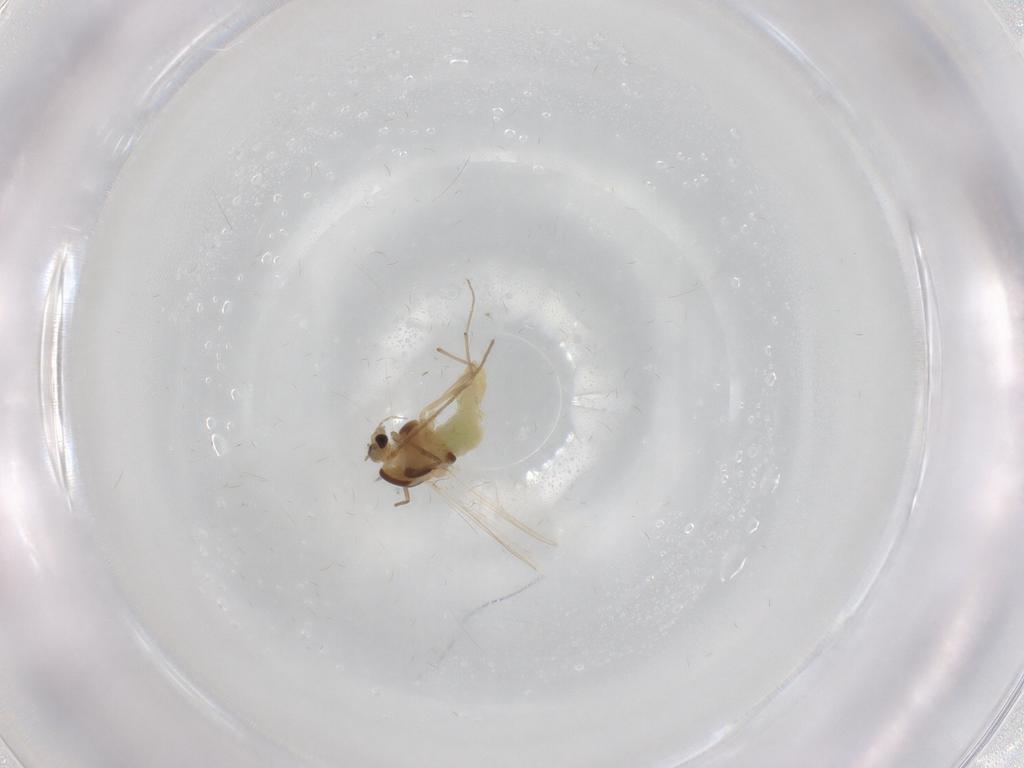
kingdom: Animalia
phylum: Arthropoda
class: Insecta
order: Diptera
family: Chironomidae
